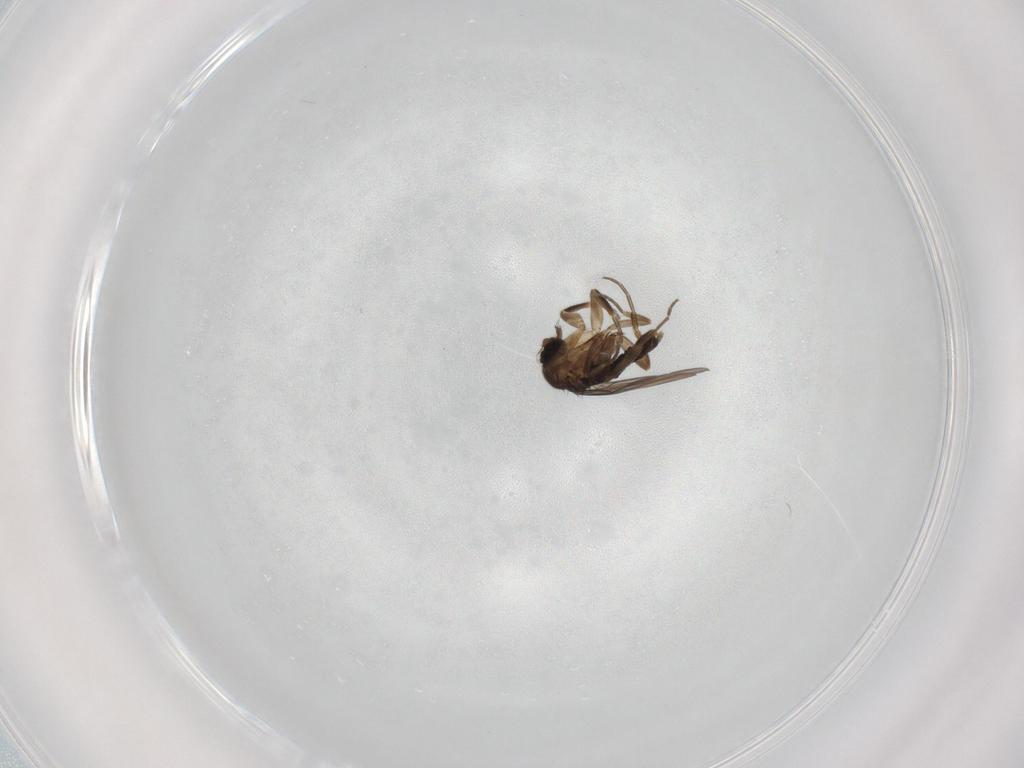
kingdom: Animalia
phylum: Arthropoda
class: Insecta
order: Diptera
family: Phoridae
